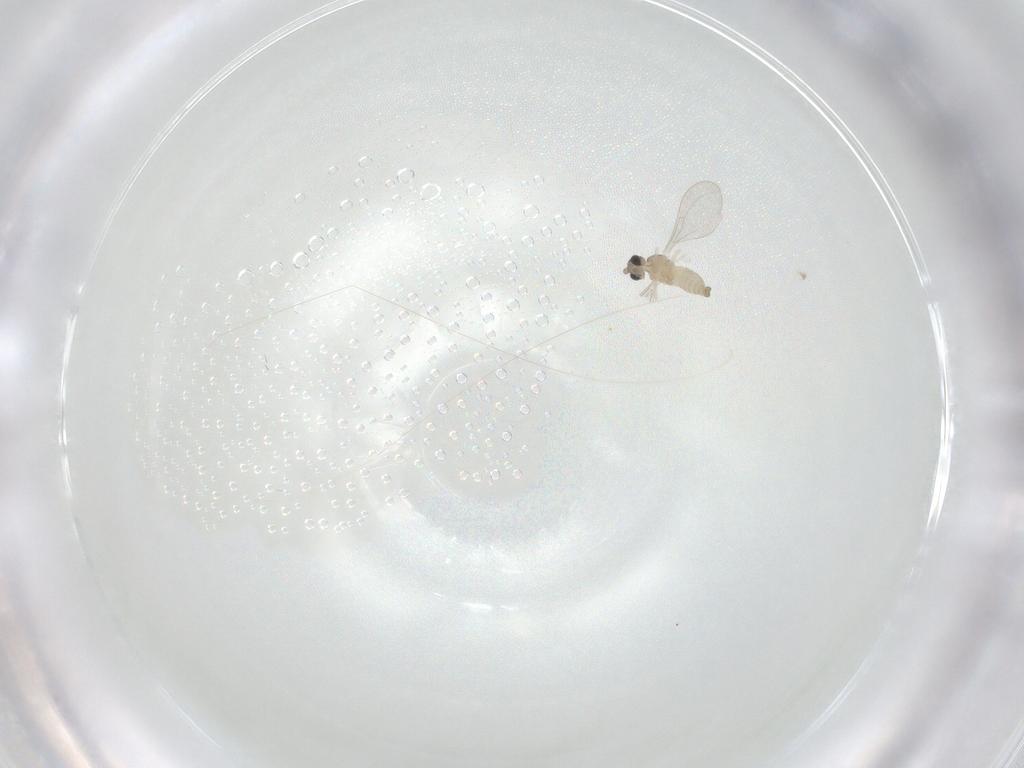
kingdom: Animalia
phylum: Arthropoda
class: Insecta
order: Diptera
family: Cecidomyiidae
